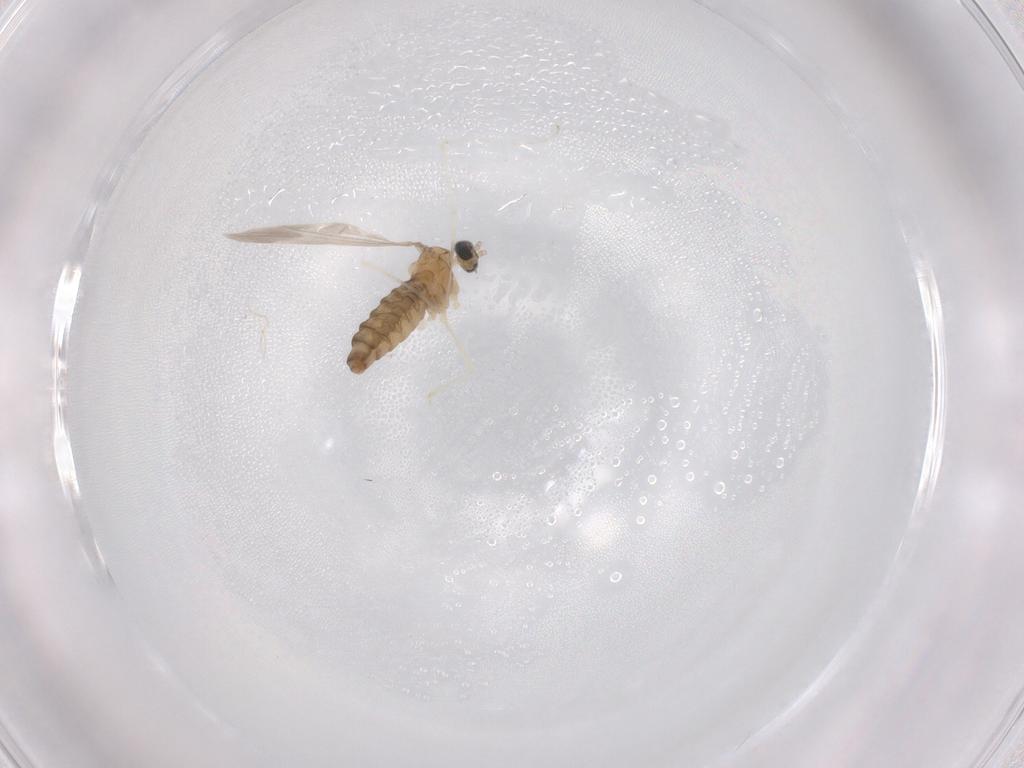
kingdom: Animalia
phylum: Arthropoda
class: Insecta
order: Diptera
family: Cecidomyiidae
